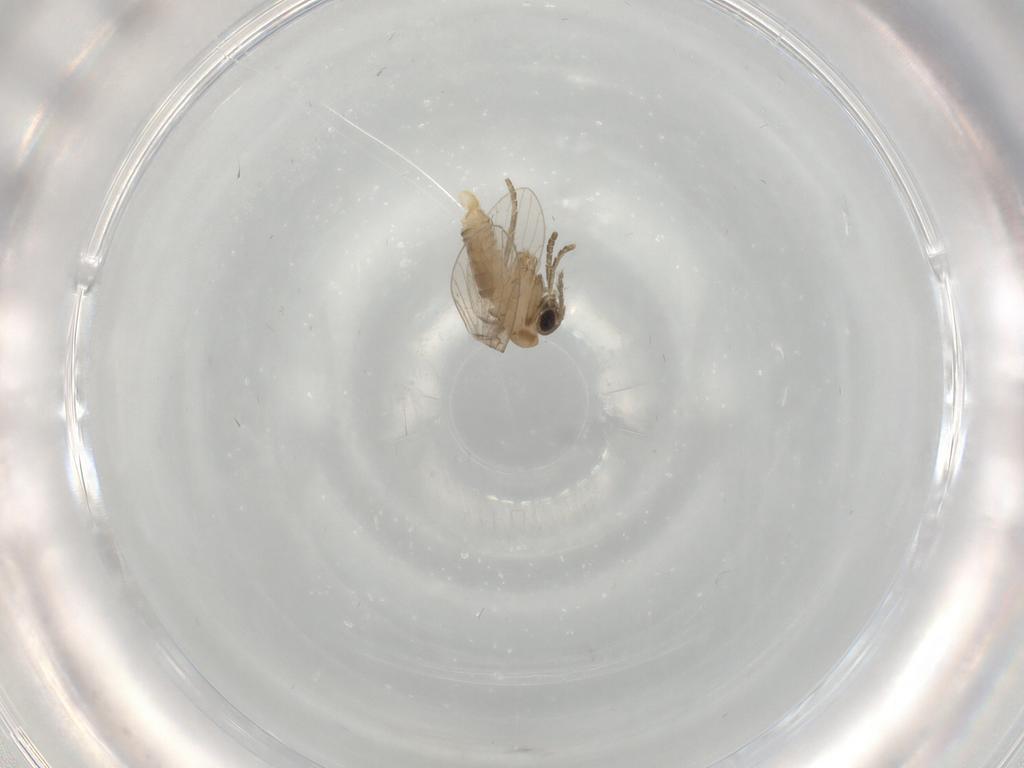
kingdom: Animalia
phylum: Arthropoda
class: Insecta
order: Diptera
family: Psychodidae
